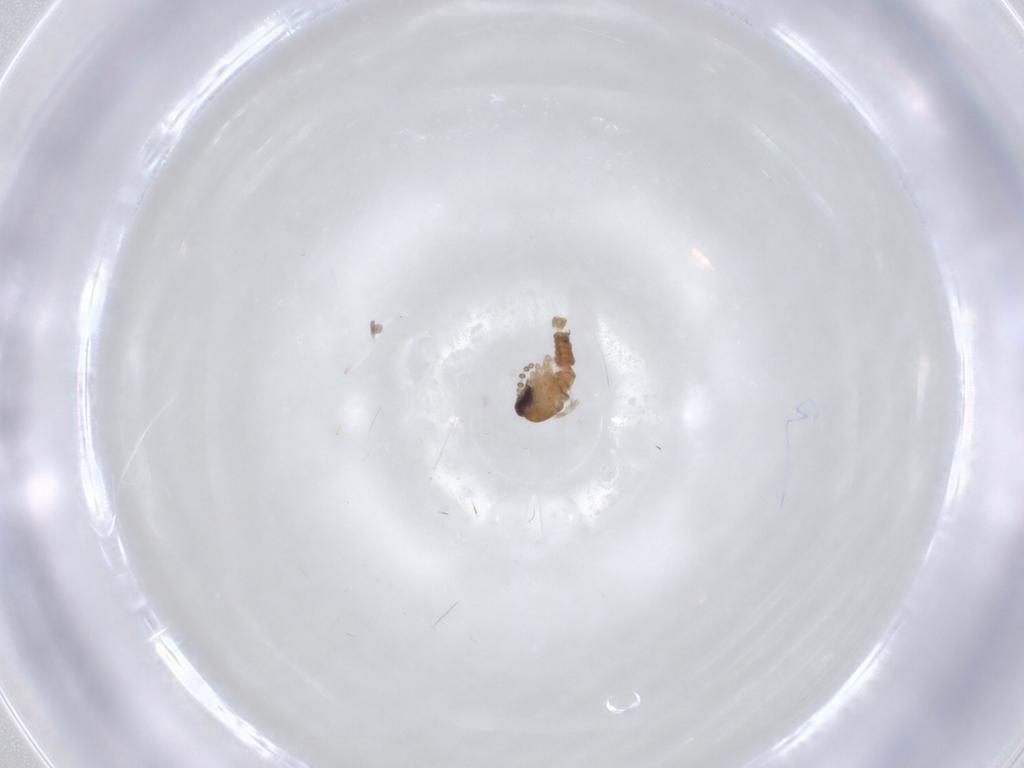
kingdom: Animalia
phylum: Arthropoda
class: Insecta
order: Diptera
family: Psychodidae
